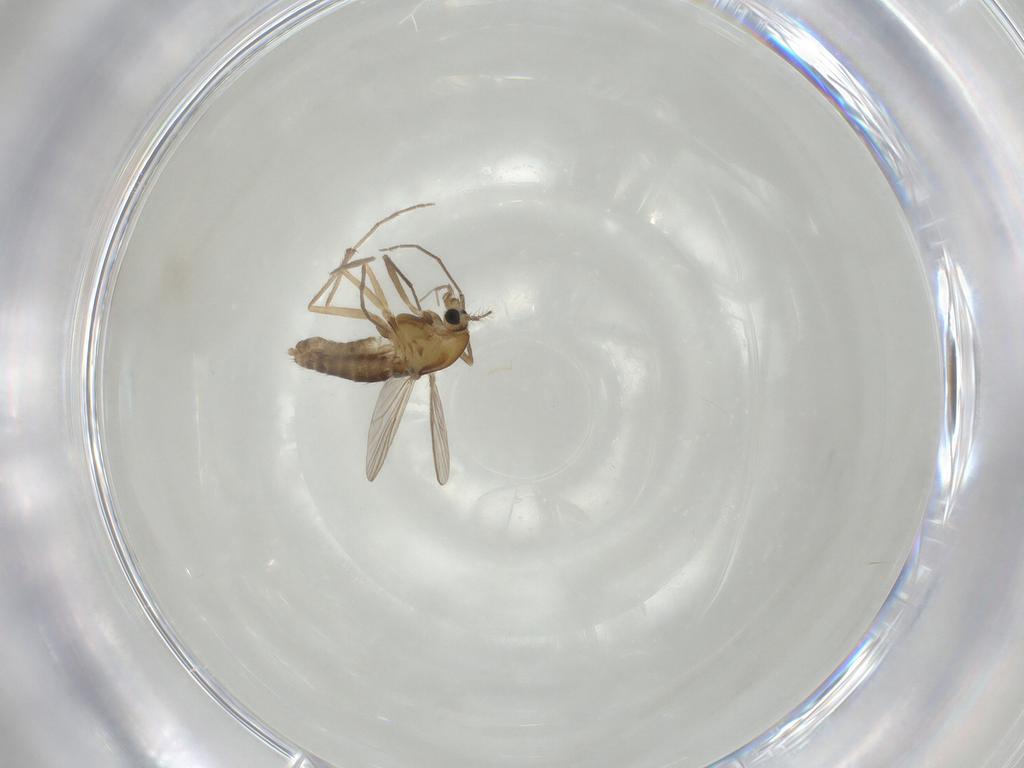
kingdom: Animalia
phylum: Arthropoda
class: Insecta
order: Diptera
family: Chironomidae
